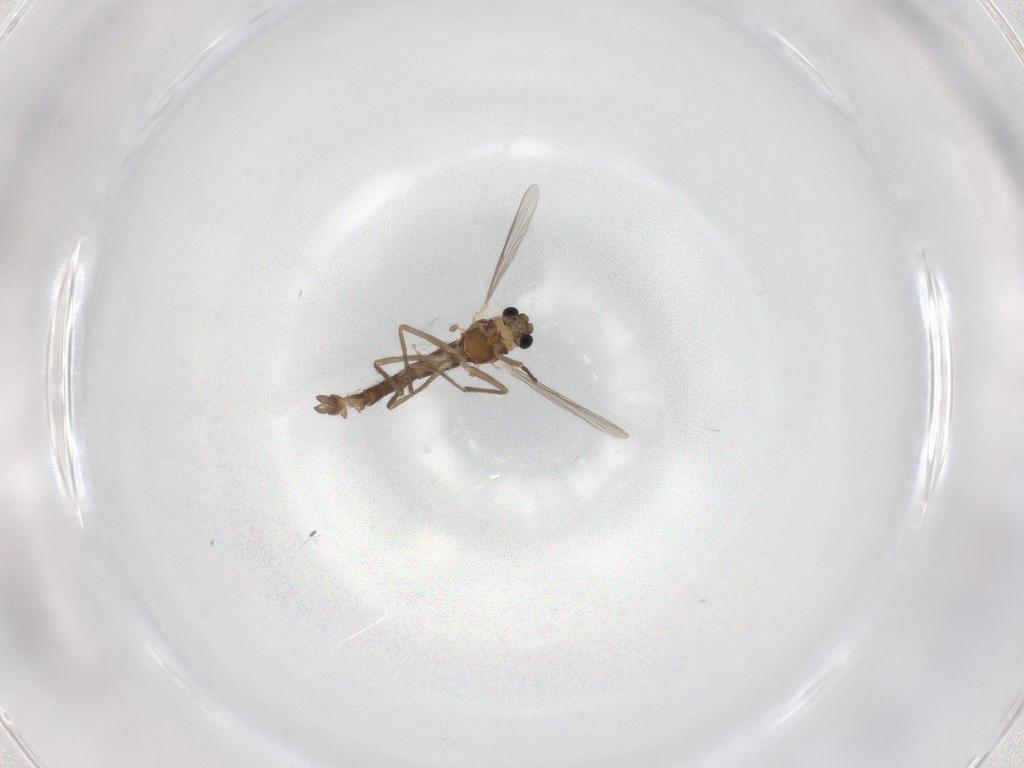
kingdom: Animalia
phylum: Arthropoda
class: Insecta
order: Diptera
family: Chironomidae
